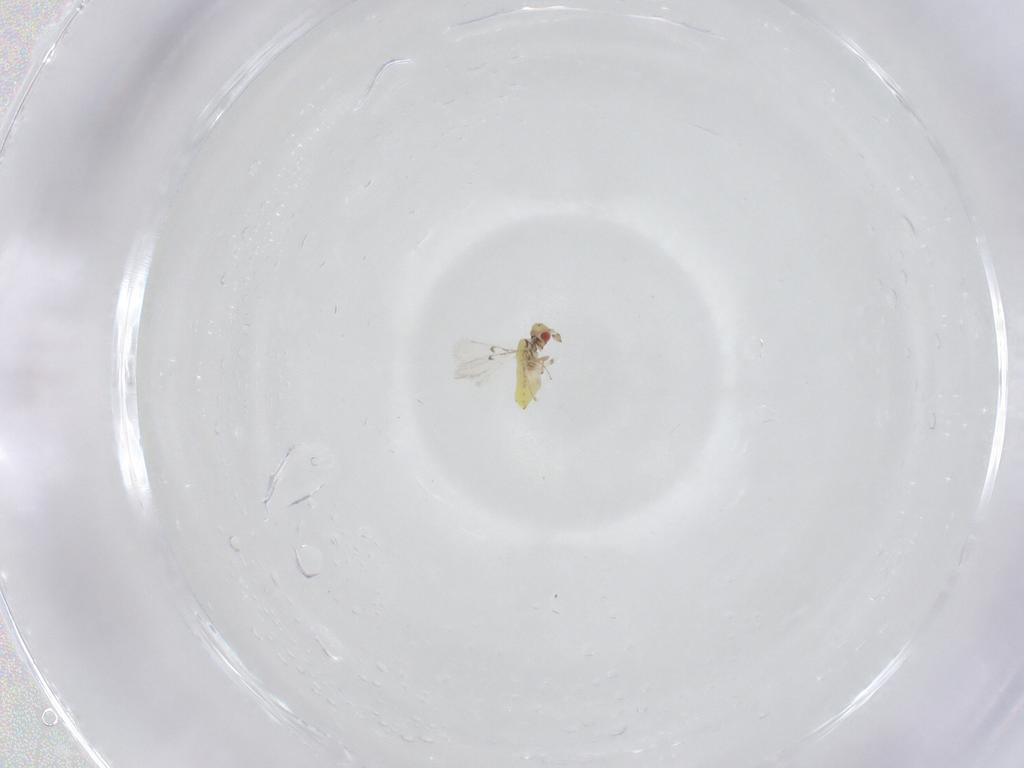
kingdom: Animalia
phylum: Arthropoda
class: Insecta
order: Hymenoptera
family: Trichogrammatidae
